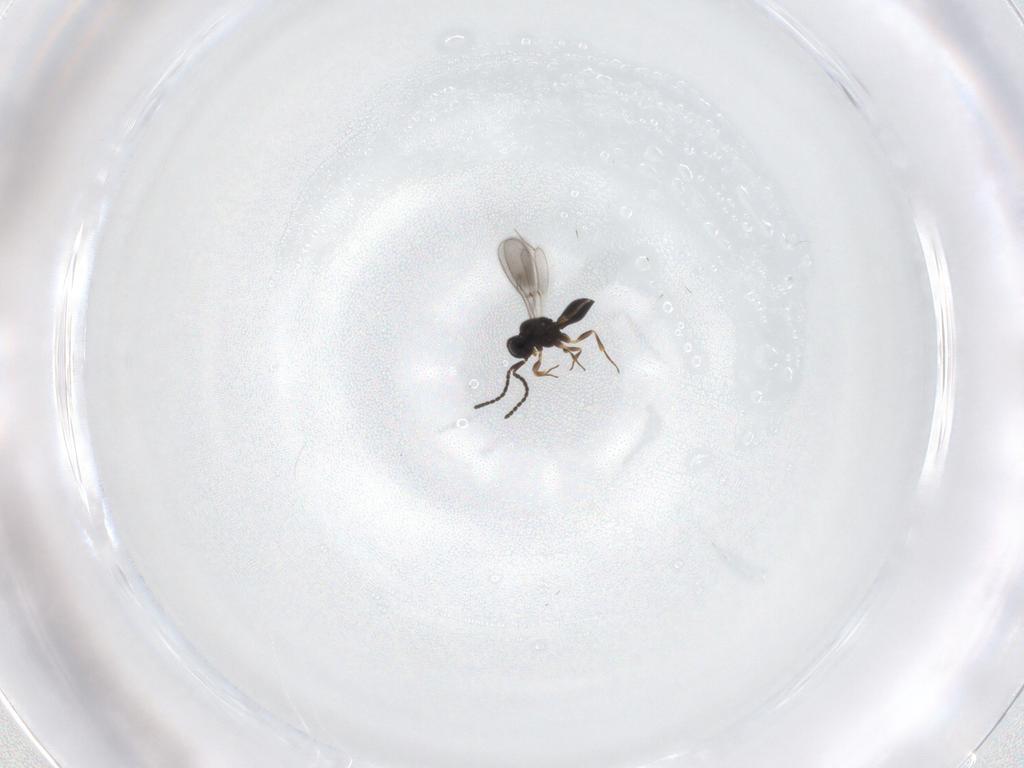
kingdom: Animalia
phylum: Arthropoda
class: Insecta
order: Hymenoptera
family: Scelionidae
